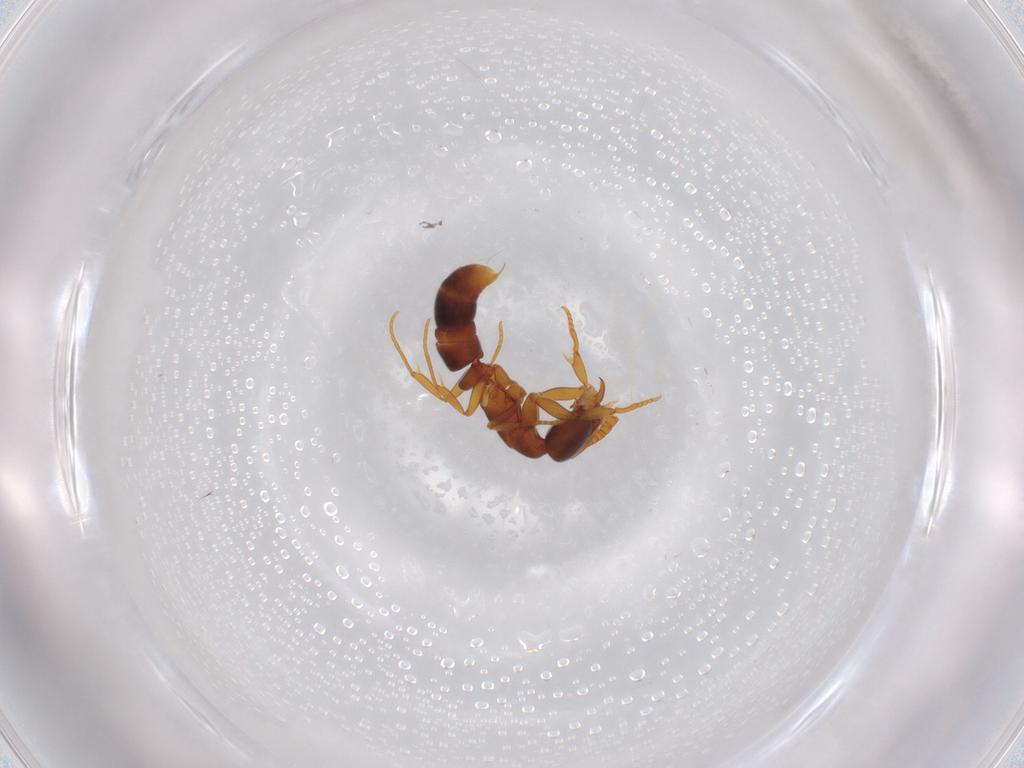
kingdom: Animalia
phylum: Arthropoda
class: Insecta
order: Hymenoptera
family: Formicidae
